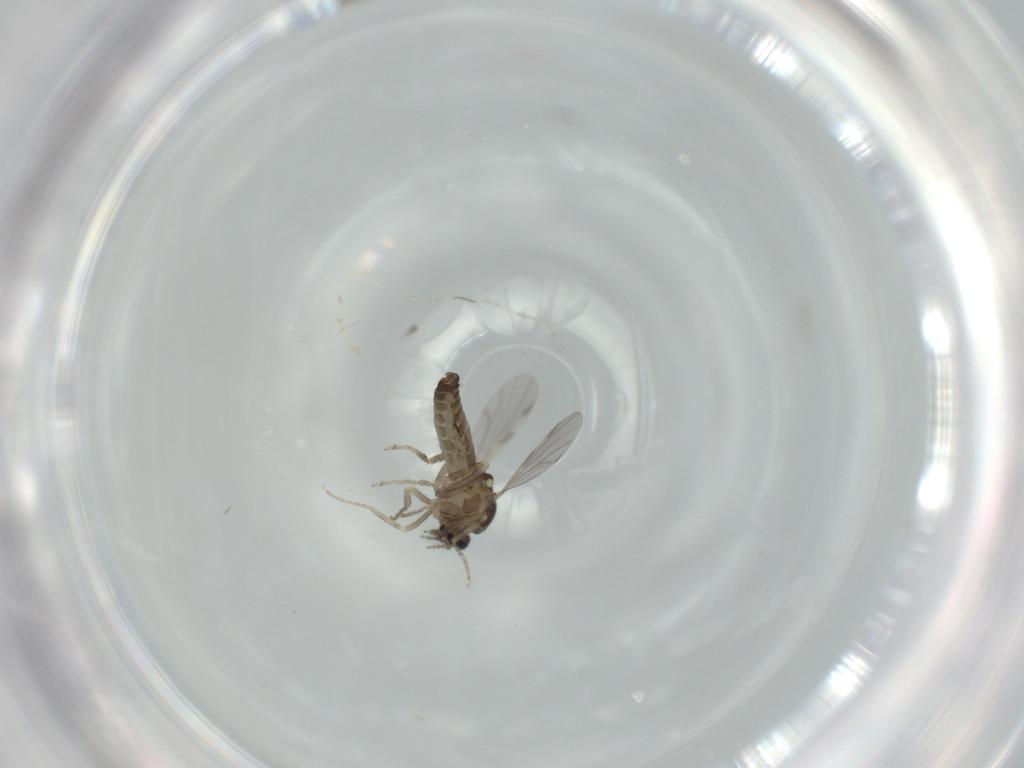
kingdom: Animalia
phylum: Arthropoda
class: Insecta
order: Diptera
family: Ceratopogonidae
